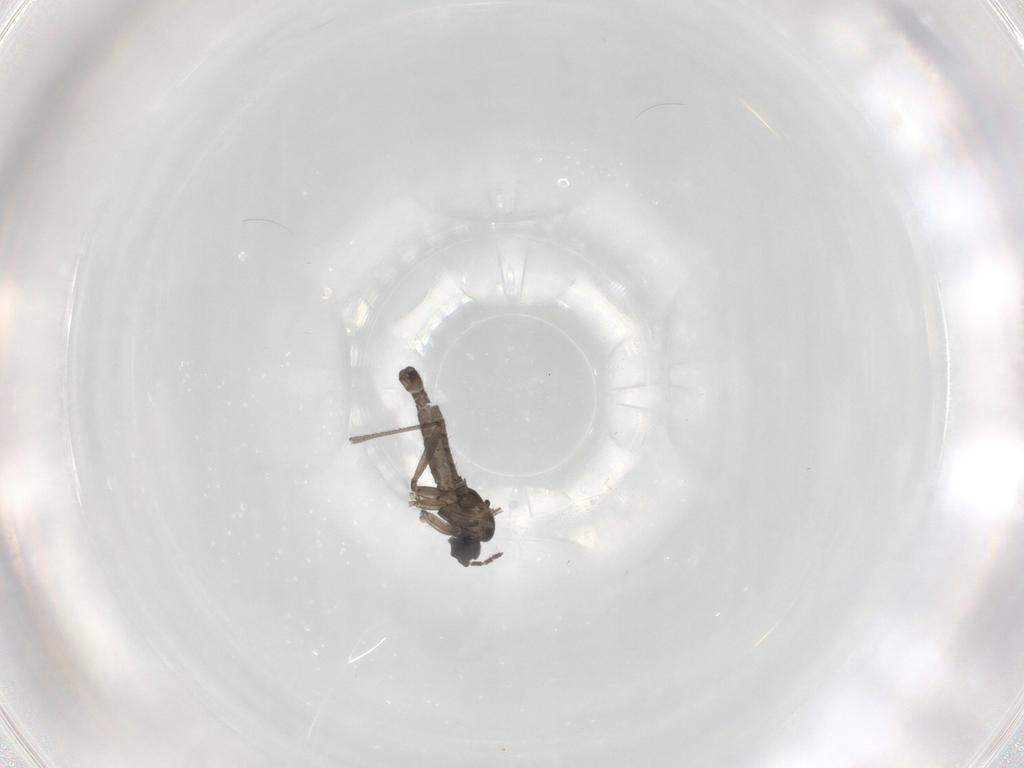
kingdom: Animalia
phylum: Arthropoda
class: Insecta
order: Diptera
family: Sciaridae
